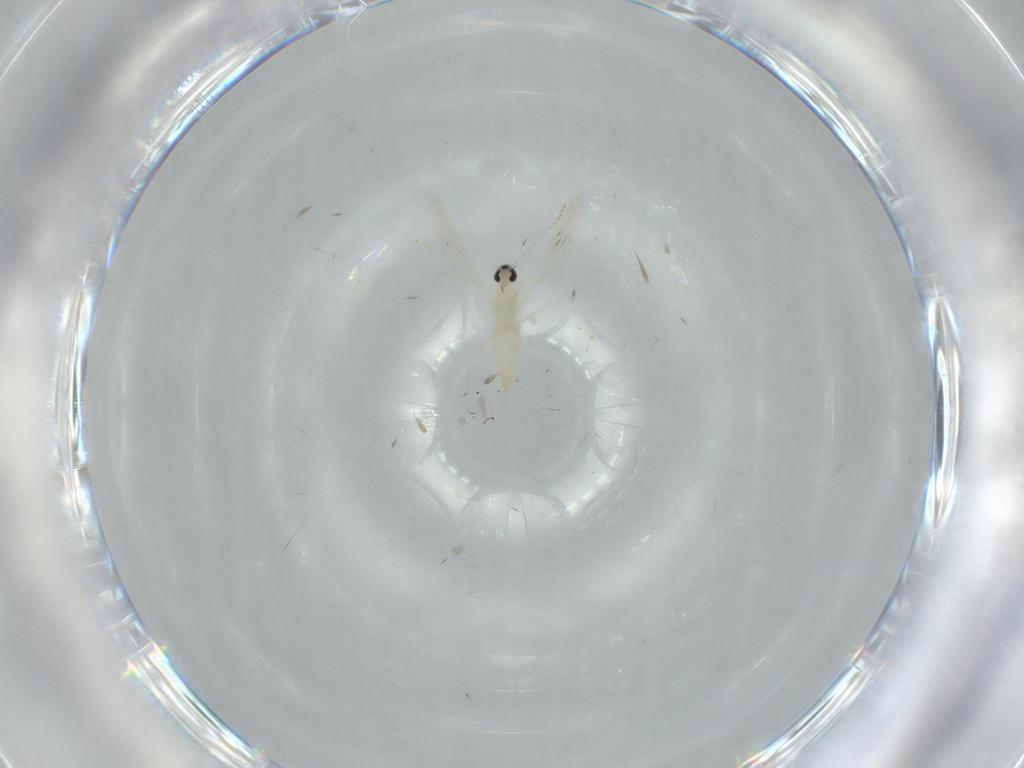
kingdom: Animalia
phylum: Arthropoda
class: Insecta
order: Diptera
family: Cecidomyiidae
